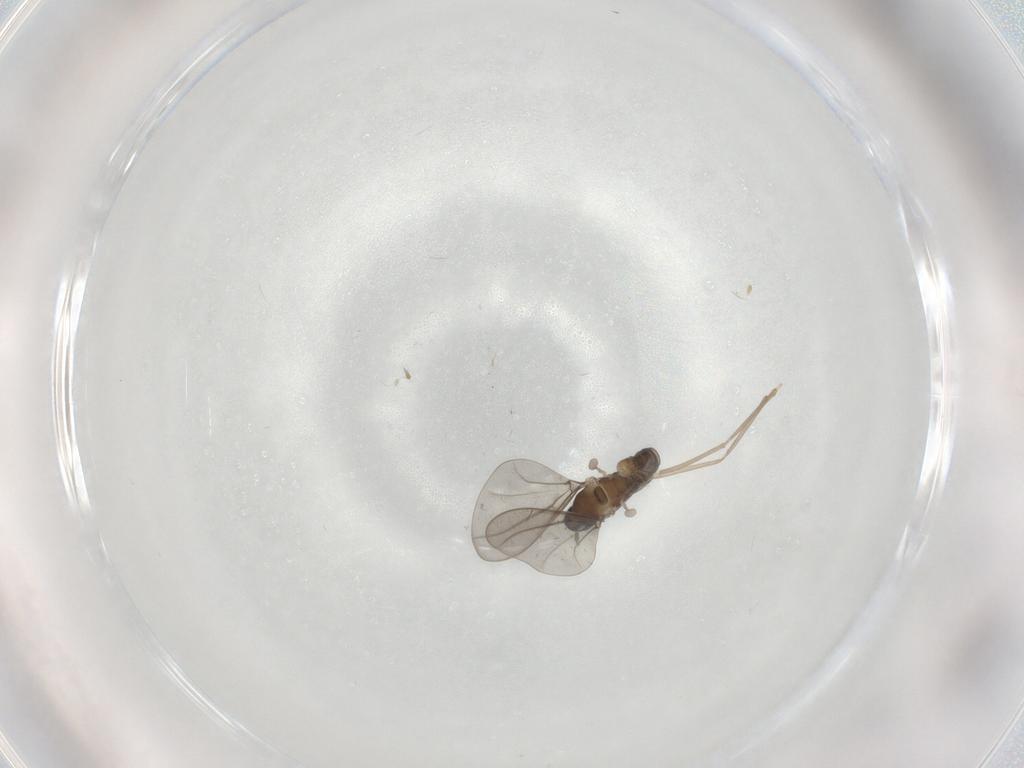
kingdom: Animalia
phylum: Arthropoda
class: Insecta
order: Diptera
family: Cecidomyiidae
